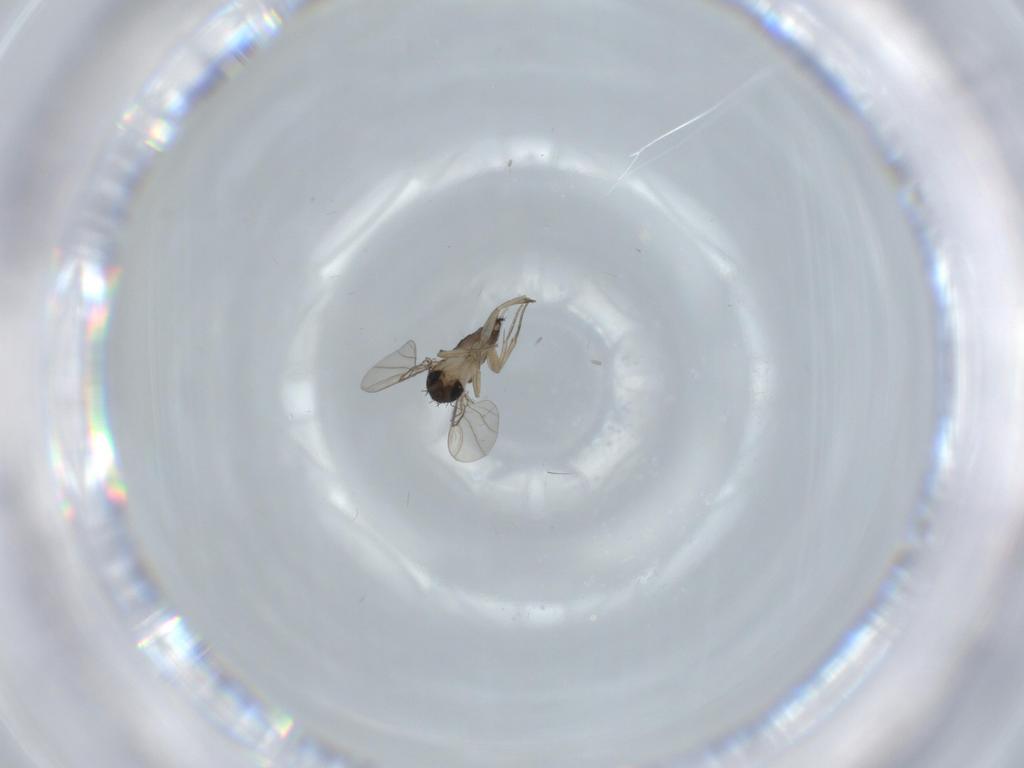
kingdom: Animalia
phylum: Arthropoda
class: Insecta
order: Diptera
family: Phoridae
